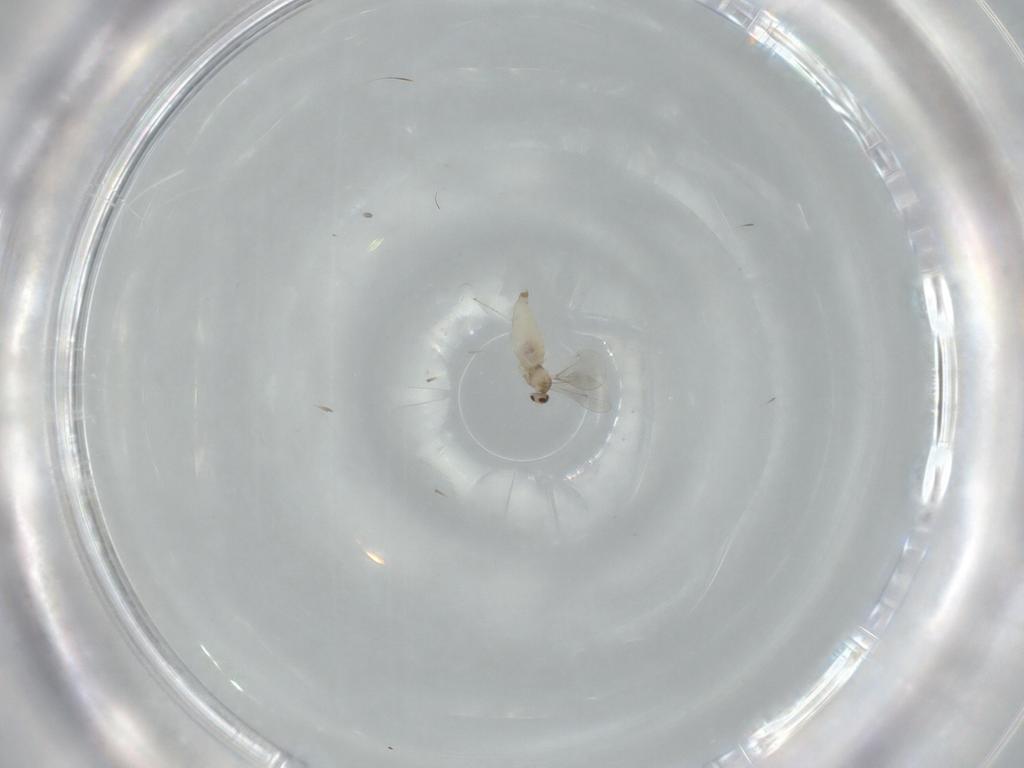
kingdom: Animalia
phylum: Arthropoda
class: Insecta
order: Diptera
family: Cecidomyiidae
